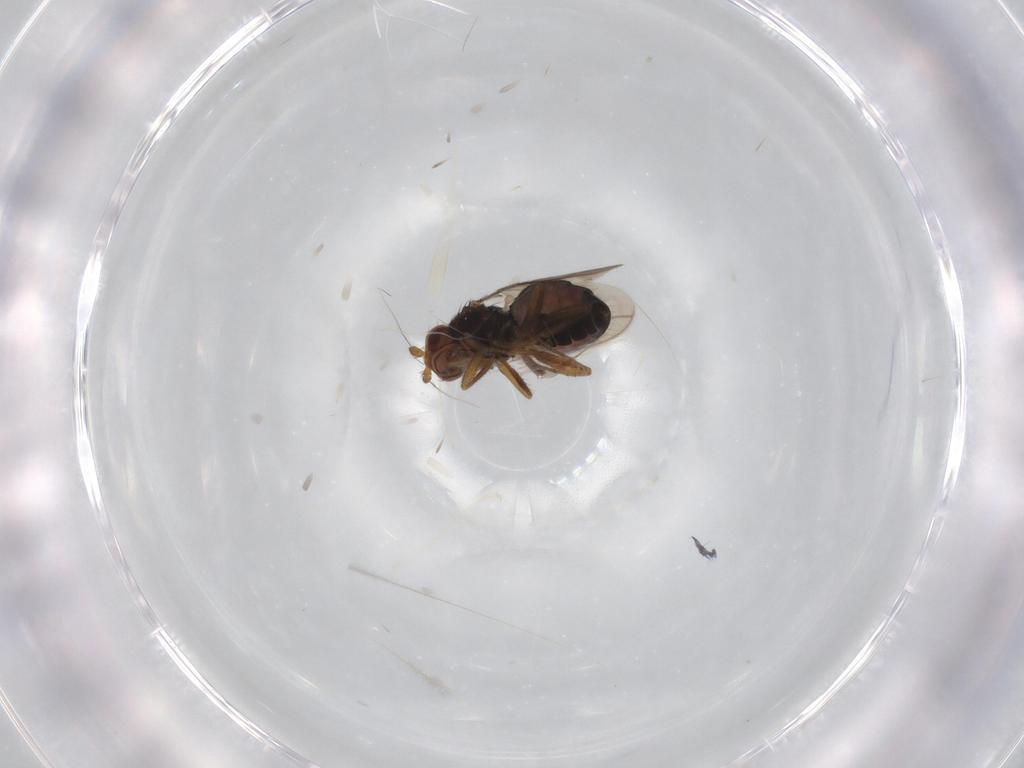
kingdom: Animalia
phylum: Arthropoda
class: Insecta
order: Diptera
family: Sphaeroceridae
